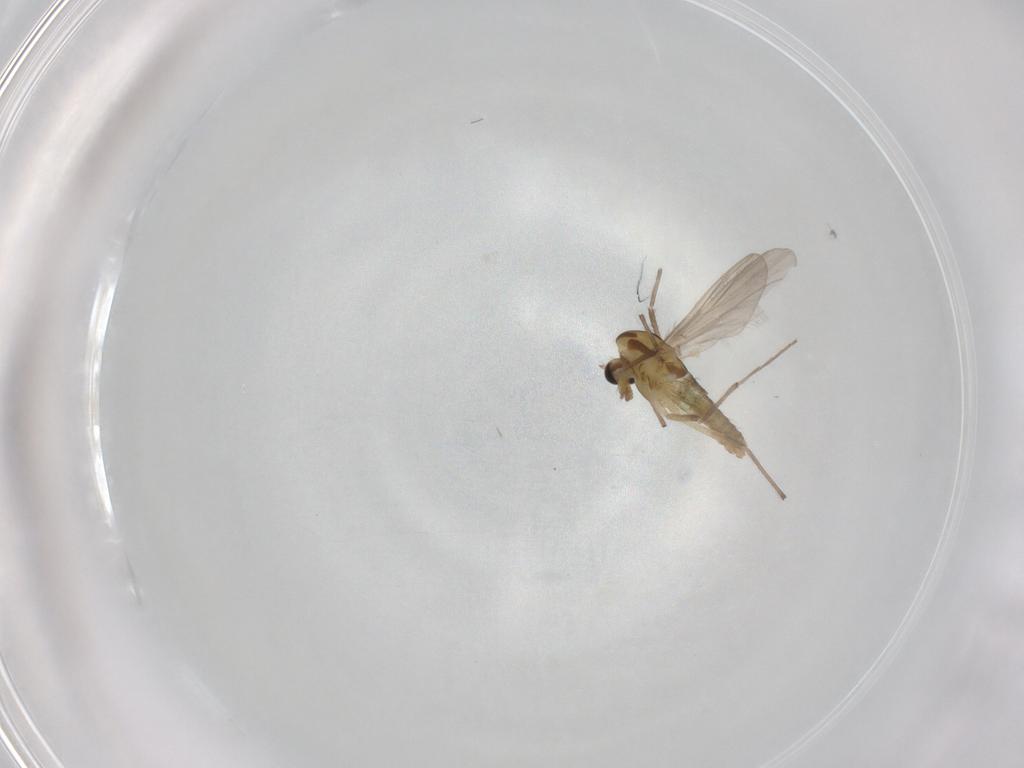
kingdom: Animalia
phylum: Arthropoda
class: Insecta
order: Diptera
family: Chironomidae
